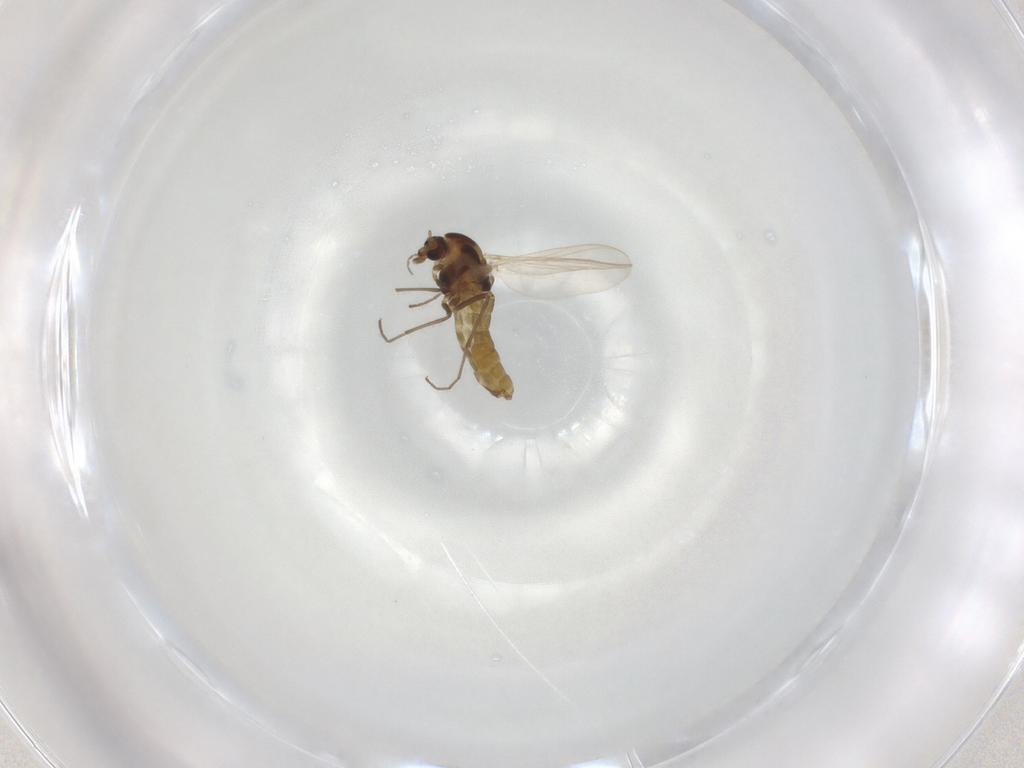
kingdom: Animalia
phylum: Arthropoda
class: Insecta
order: Diptera
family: Chironomidae
